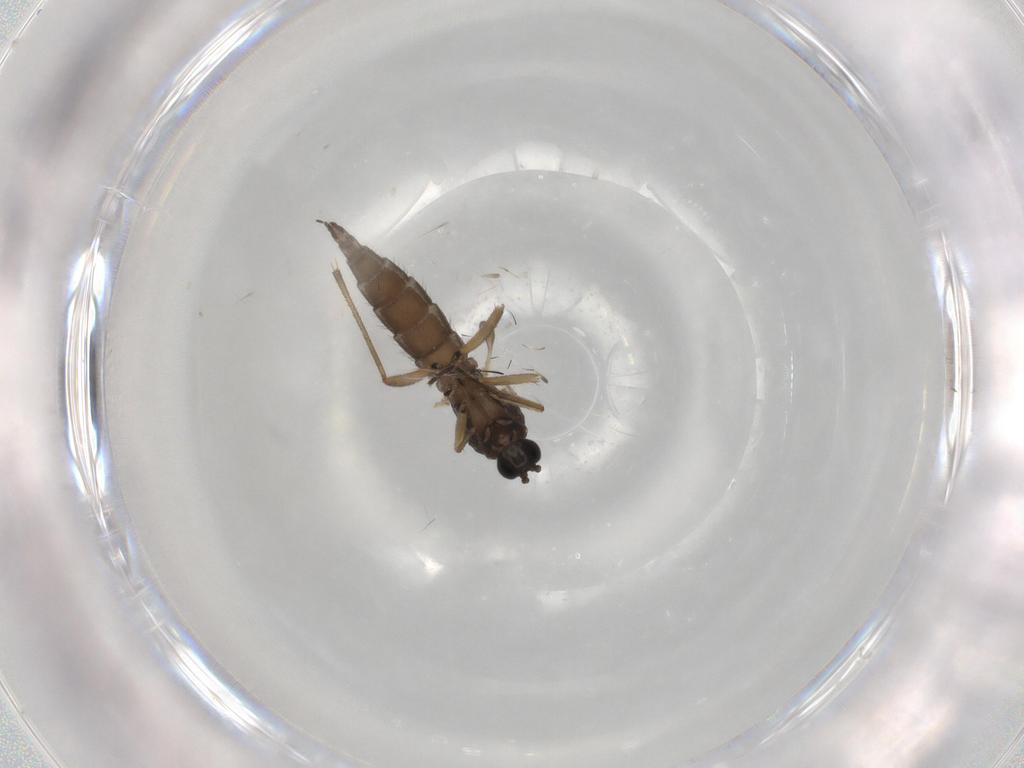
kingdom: Animalia
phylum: Arthropoda
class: Insecta
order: Diptera
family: Sciaridae
